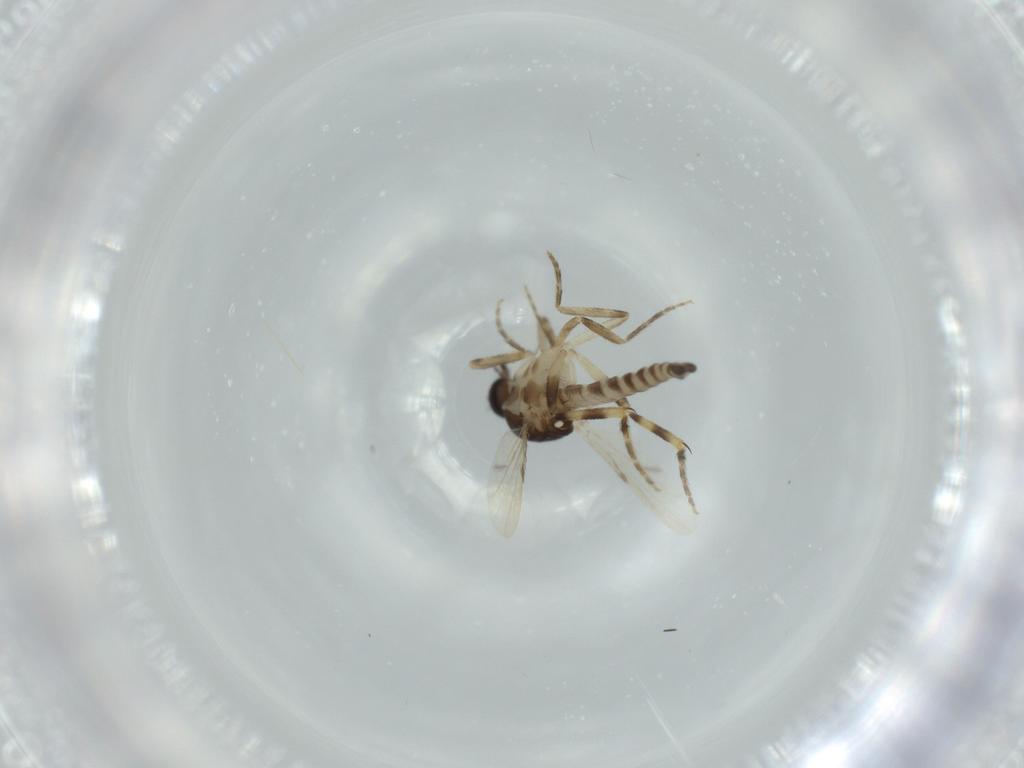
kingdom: Animalia
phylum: Arthropoda
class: Insecta
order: Diptera
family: Ceratopogonidae
